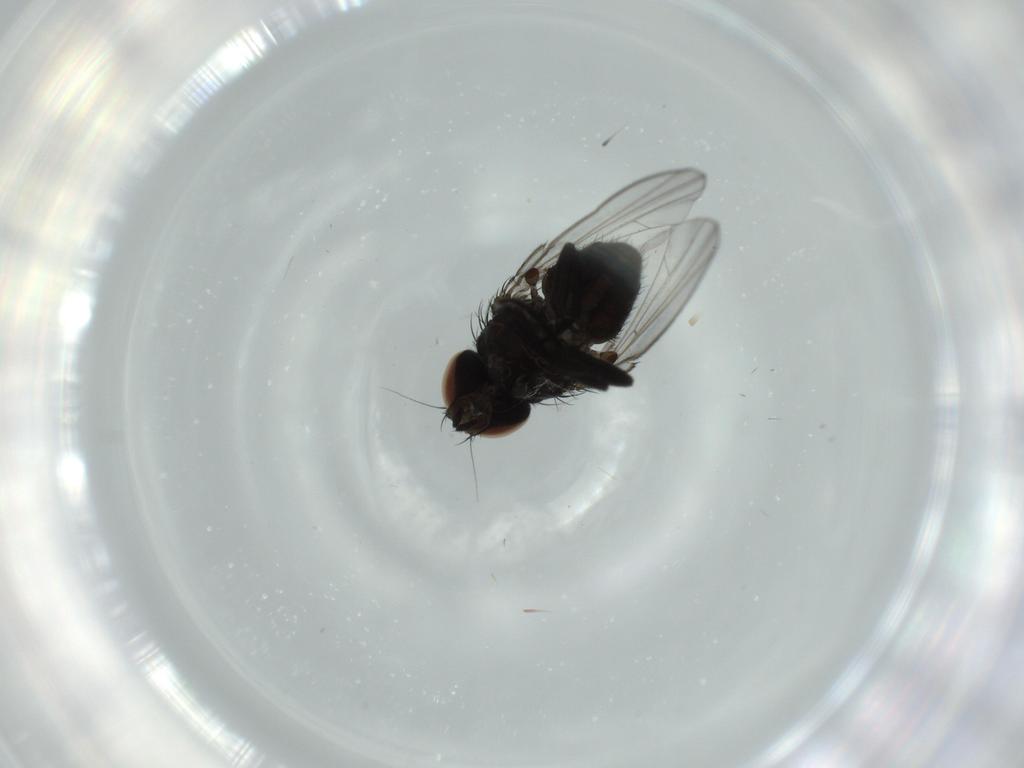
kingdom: Animalia
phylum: Arthropoda
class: Insecta
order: Diptera
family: Milichiidae
